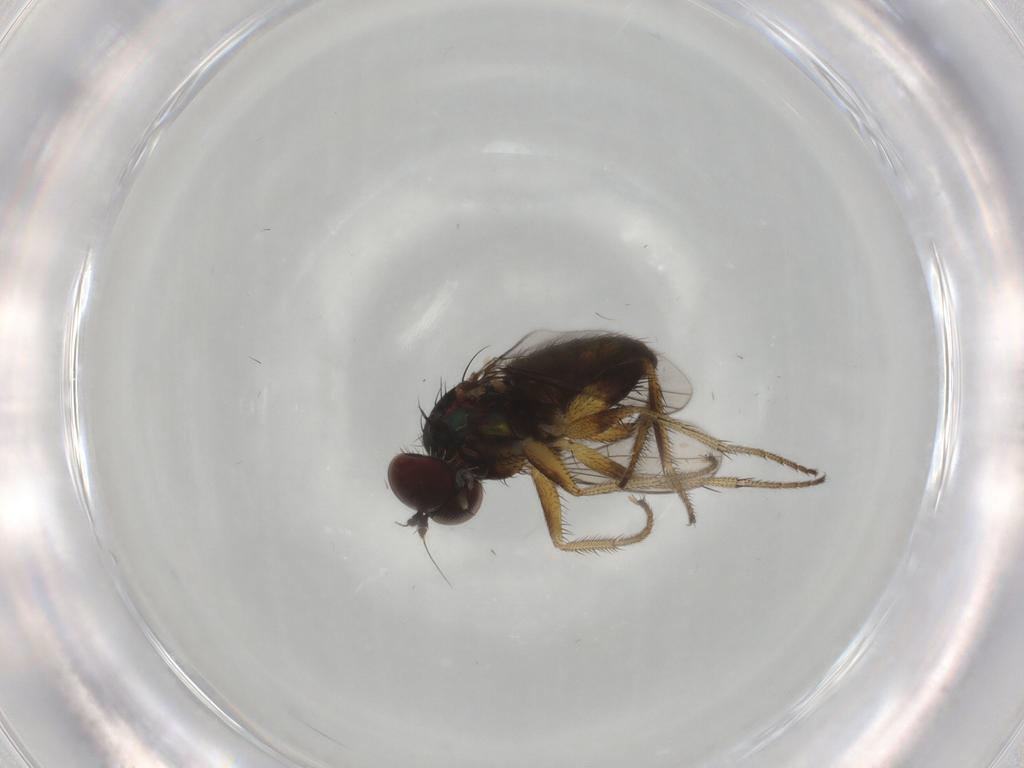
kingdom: Animalia
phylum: Arthropoda
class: Insecta
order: Diptera
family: Dolichopodidae
